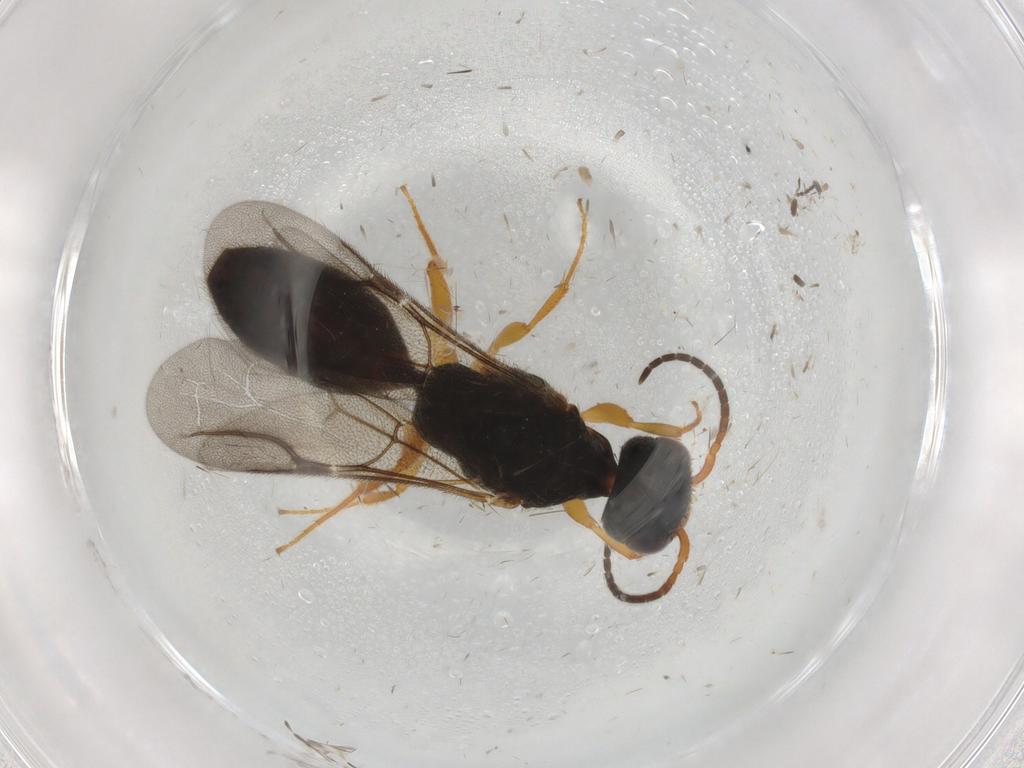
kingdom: Animalia
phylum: Arthropoda
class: Insecta
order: Hymenoptera
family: Bethylidae
